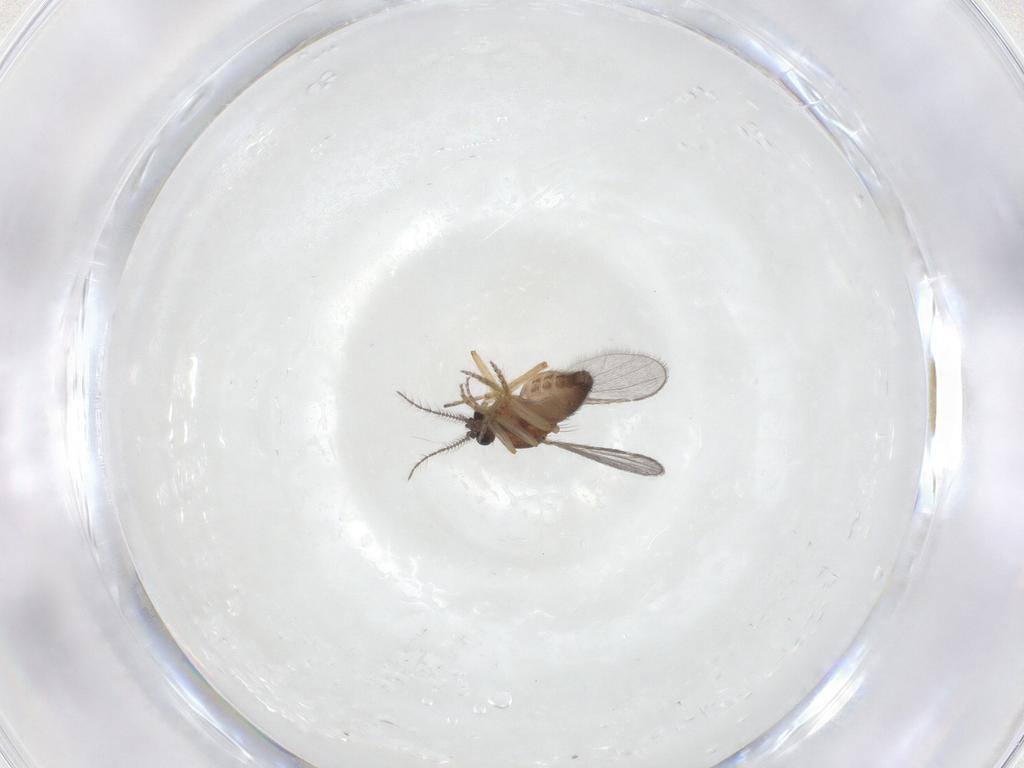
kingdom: Animalia
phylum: Arthropoda
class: Insecta
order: Diptera
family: Ceratopogonidae
